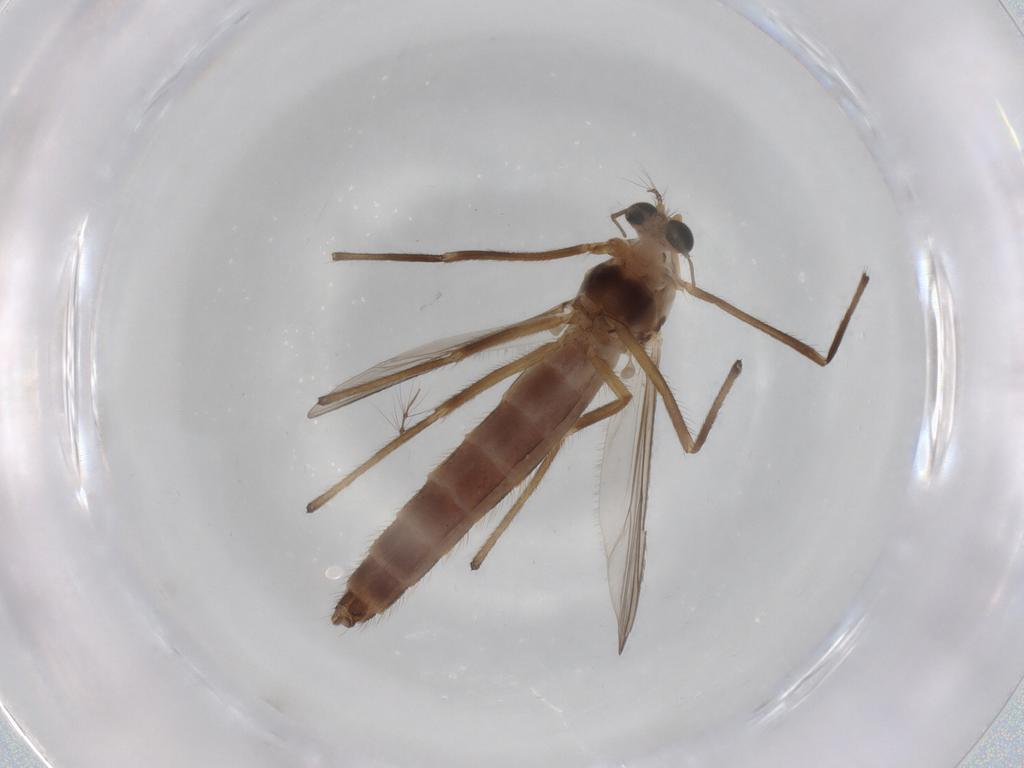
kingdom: Animalia
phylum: Arthropoda
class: Insecta
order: Diptera
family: Chironomidae
